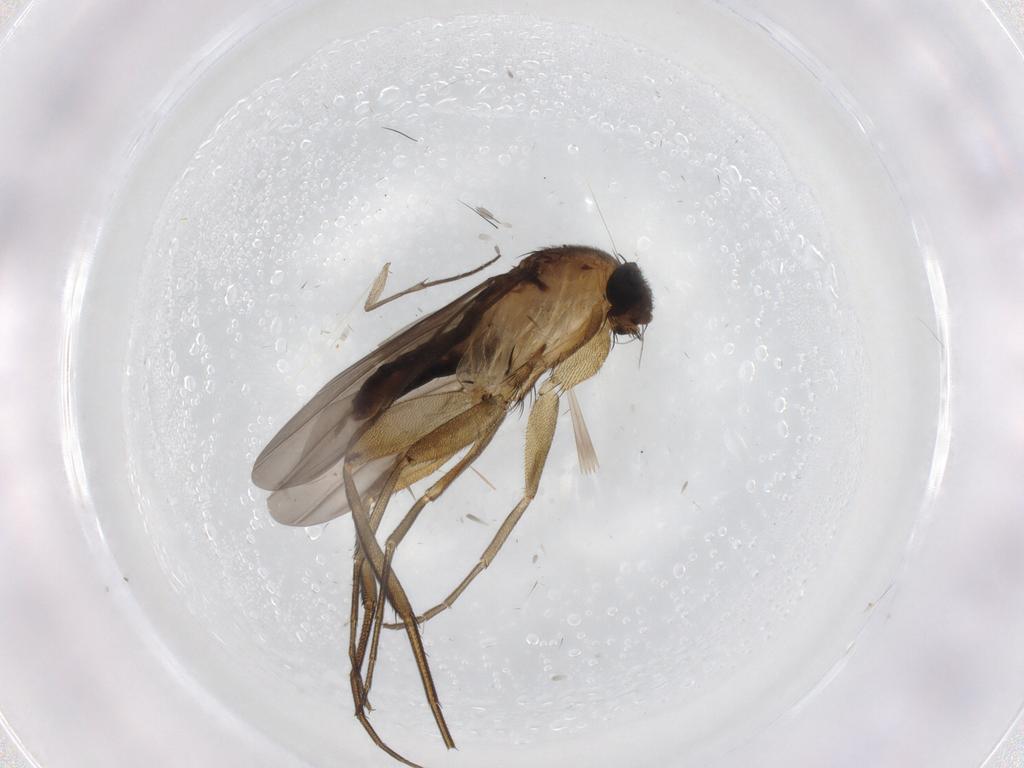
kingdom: Animalia
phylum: Arthropoda
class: Insecta
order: Diptera
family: Phoridae
